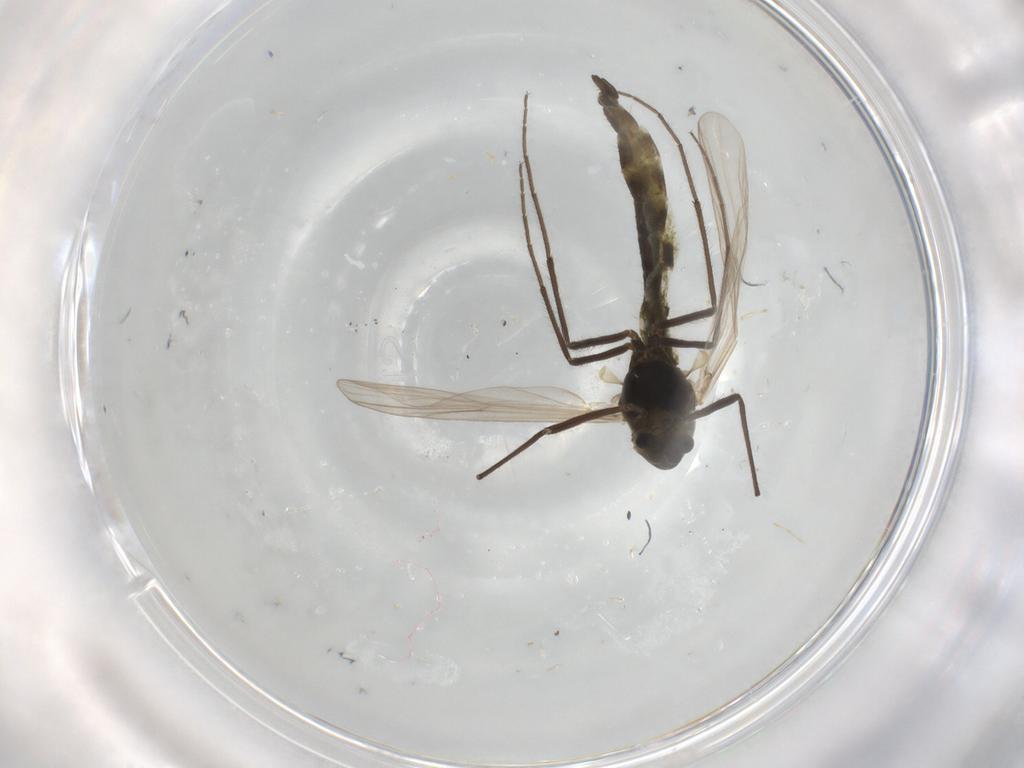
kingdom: Animalia
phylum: Arthropoda
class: Insecta
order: Diptera
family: Chironomidae
